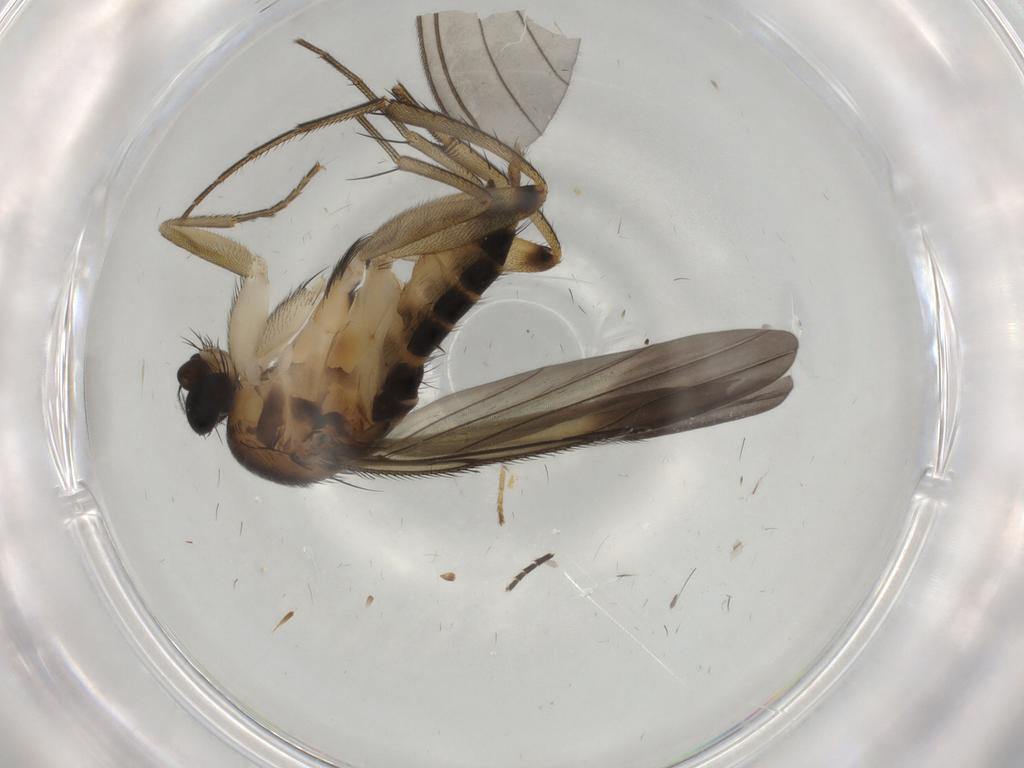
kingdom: Animalia
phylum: Arthropoda
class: Insecta
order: Diptera
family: Phoridae
